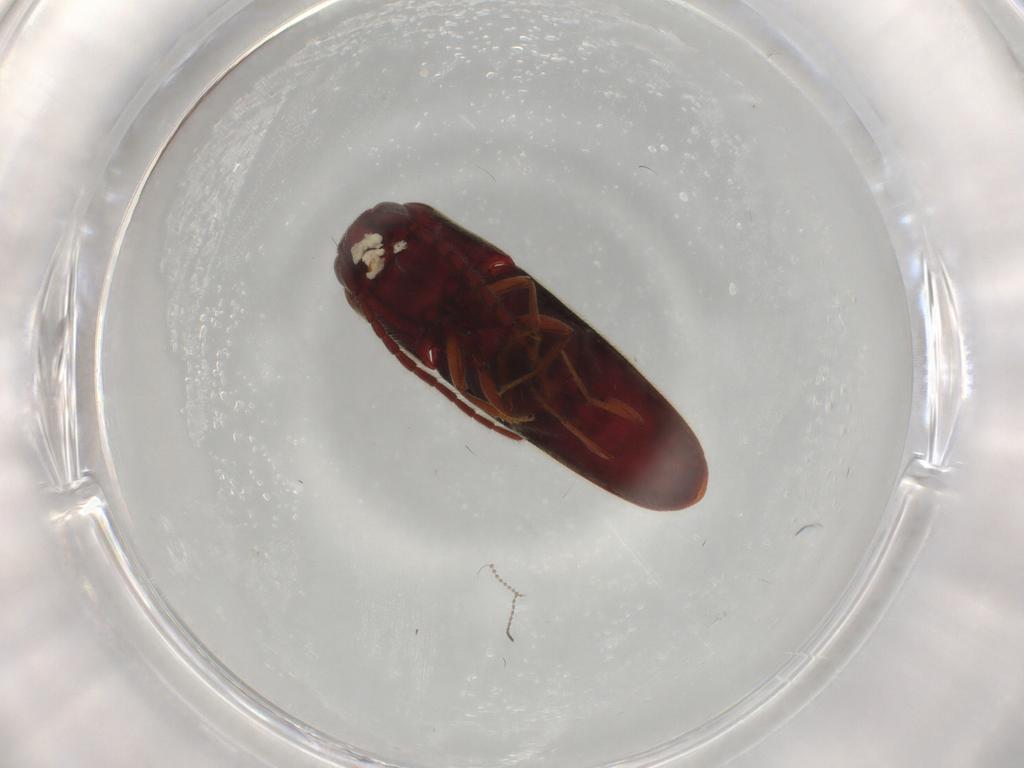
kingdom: Animalia
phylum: Arthropoda
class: Insecta
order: Coleoptera
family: Eucnemidae
